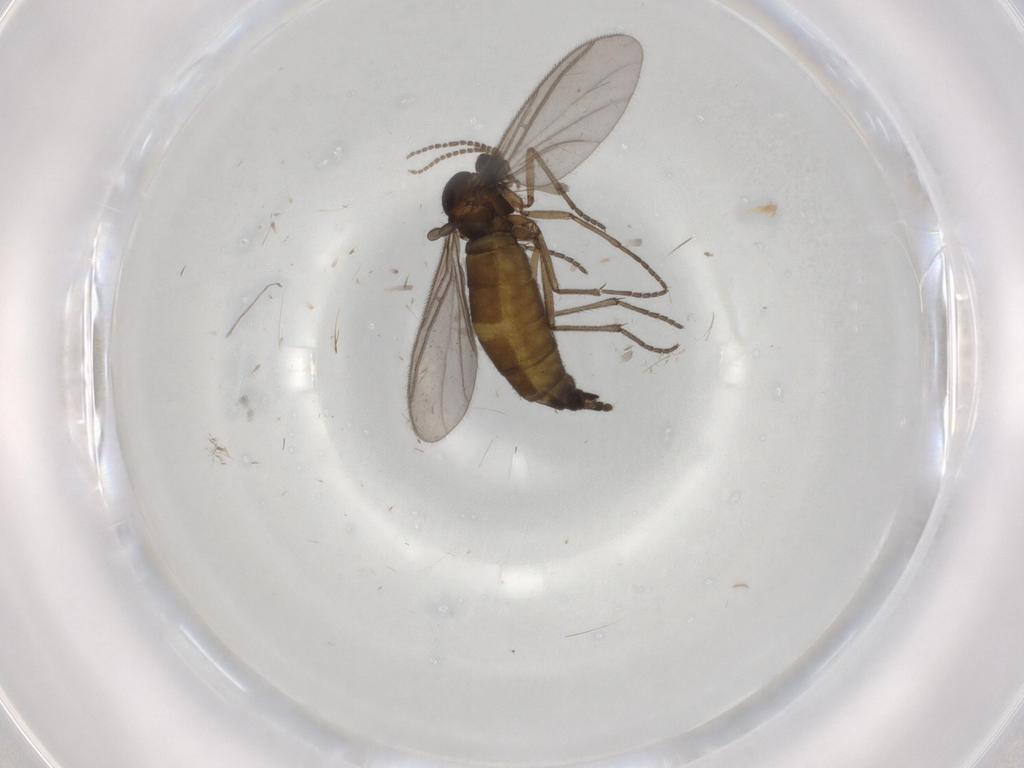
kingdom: Animalia
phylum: Arthropoda
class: Insecta
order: Diptera
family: Sciaridae
